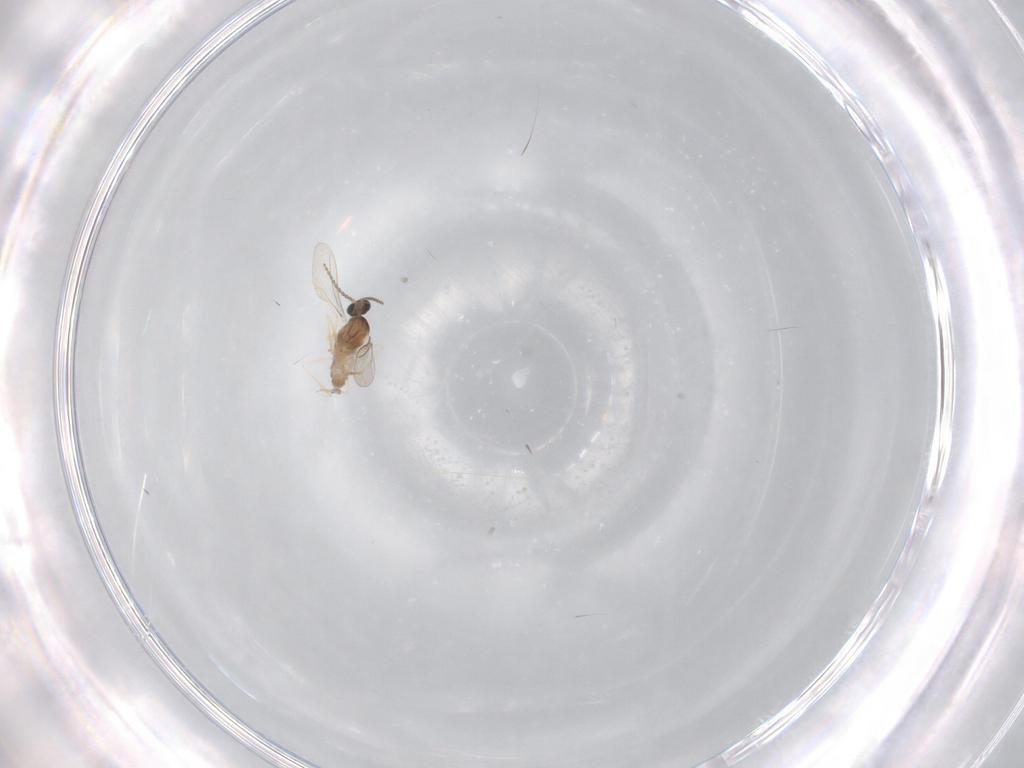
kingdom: Animalia
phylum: Arthropoda
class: Insecta
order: Diptera
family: Cecidomyiidae
